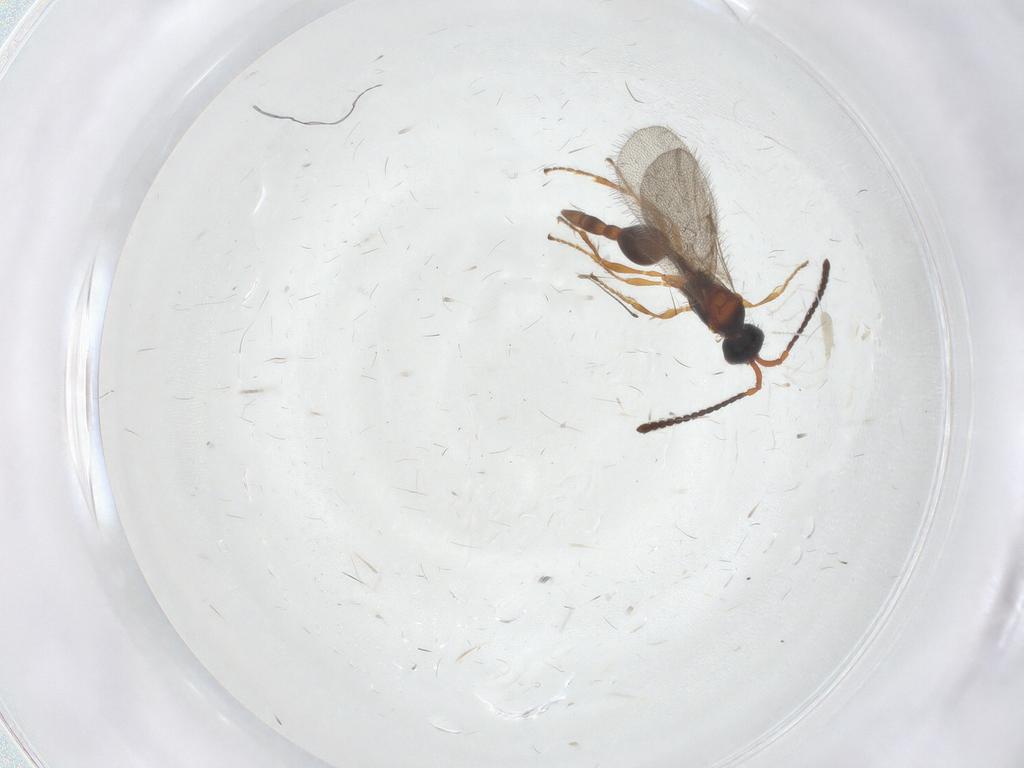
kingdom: Animalia
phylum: Arthropoda
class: Insecta
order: Hymenoptera
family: Diapriidae
